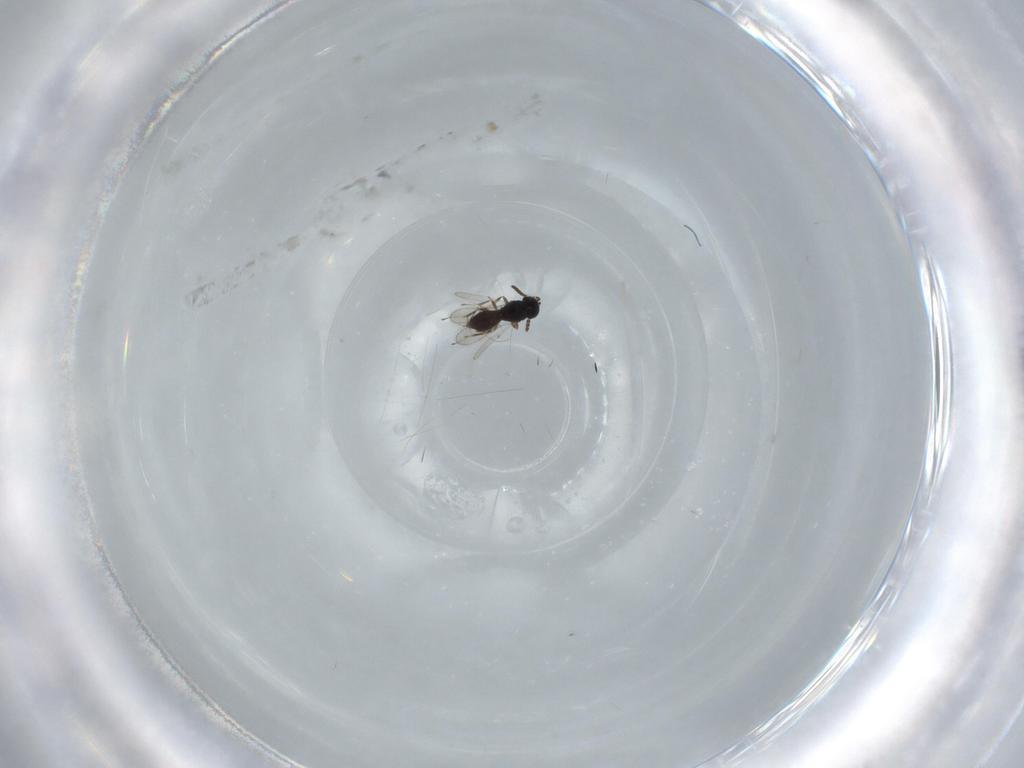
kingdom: Animalia
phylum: Arthropoda
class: Insecta
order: Hymenoptera
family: Scelionidae
